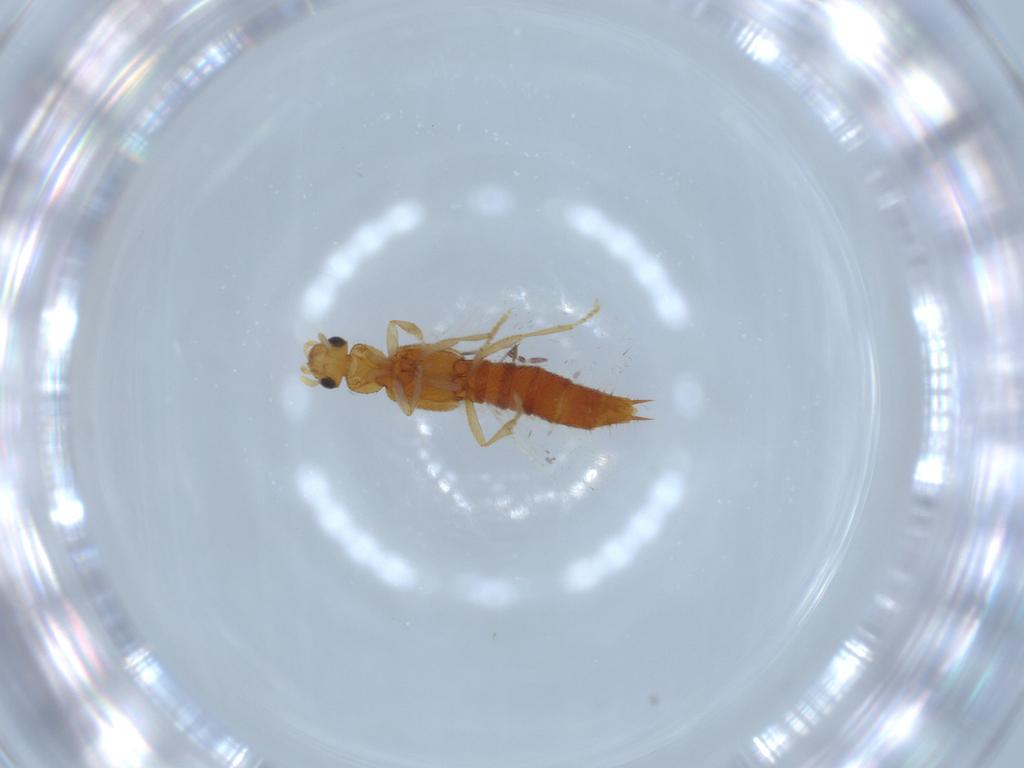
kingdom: Animalia
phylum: Arthropoda
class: Insecta
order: Coleoptera
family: Staphylinidae
